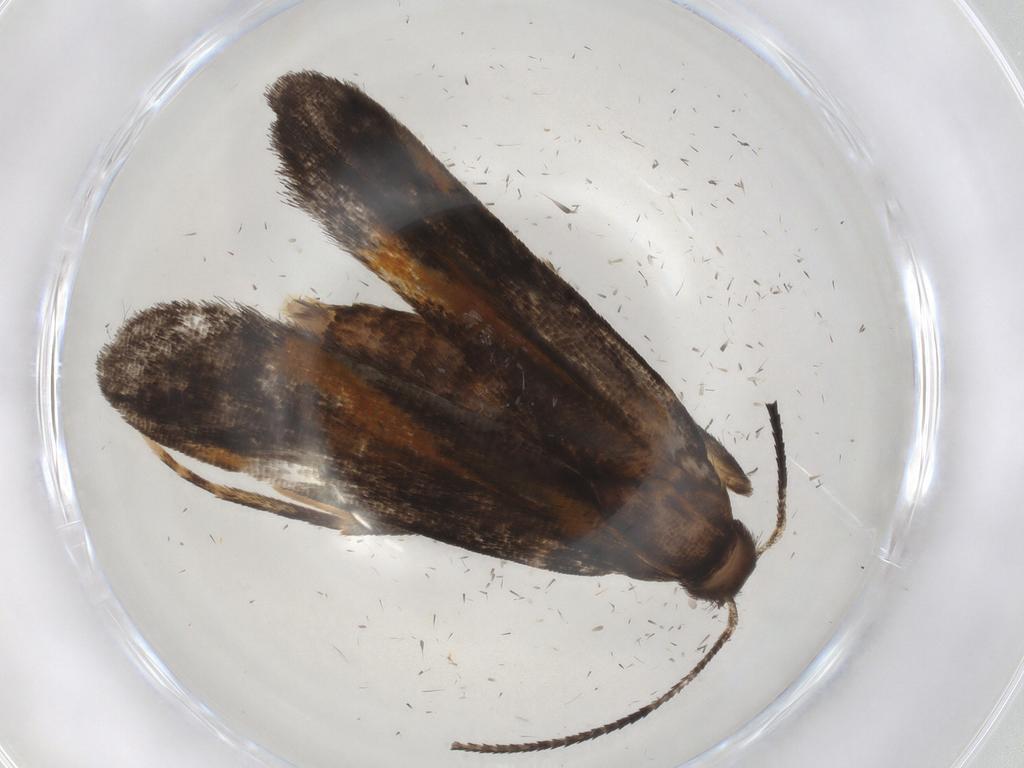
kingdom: Animalia
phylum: Arthropoda
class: Insecta
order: Lepidoptera
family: Gelechiidae
